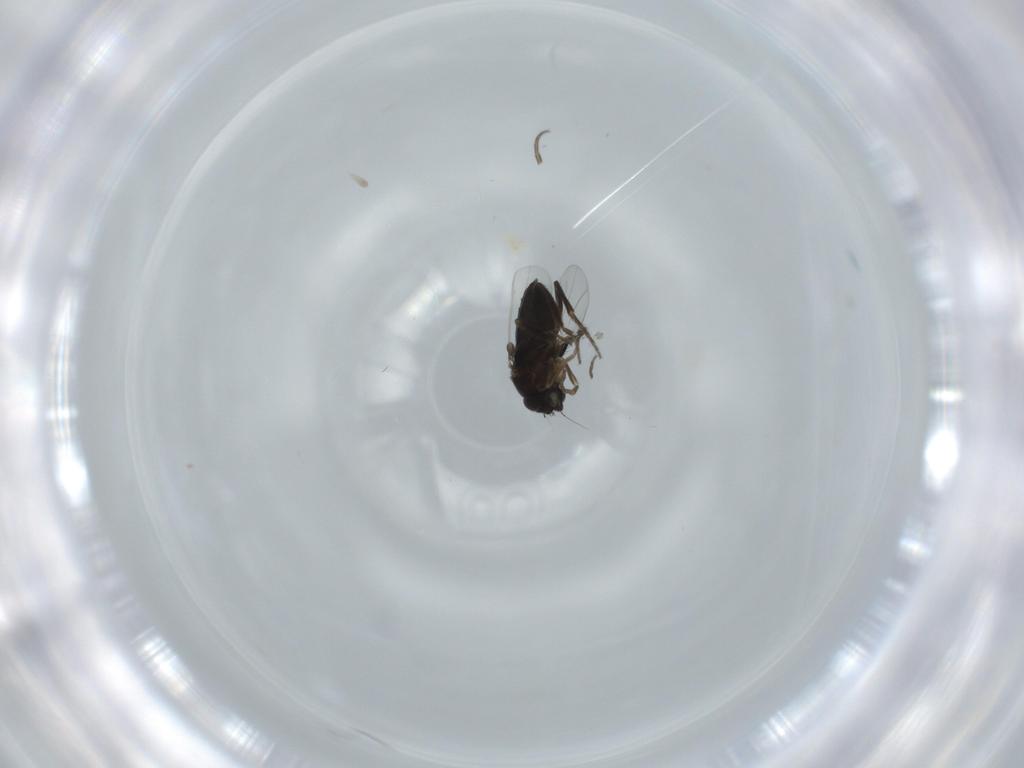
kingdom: Animalia
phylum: Arthropoda
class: Insecta
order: Diptera
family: Phoridae
